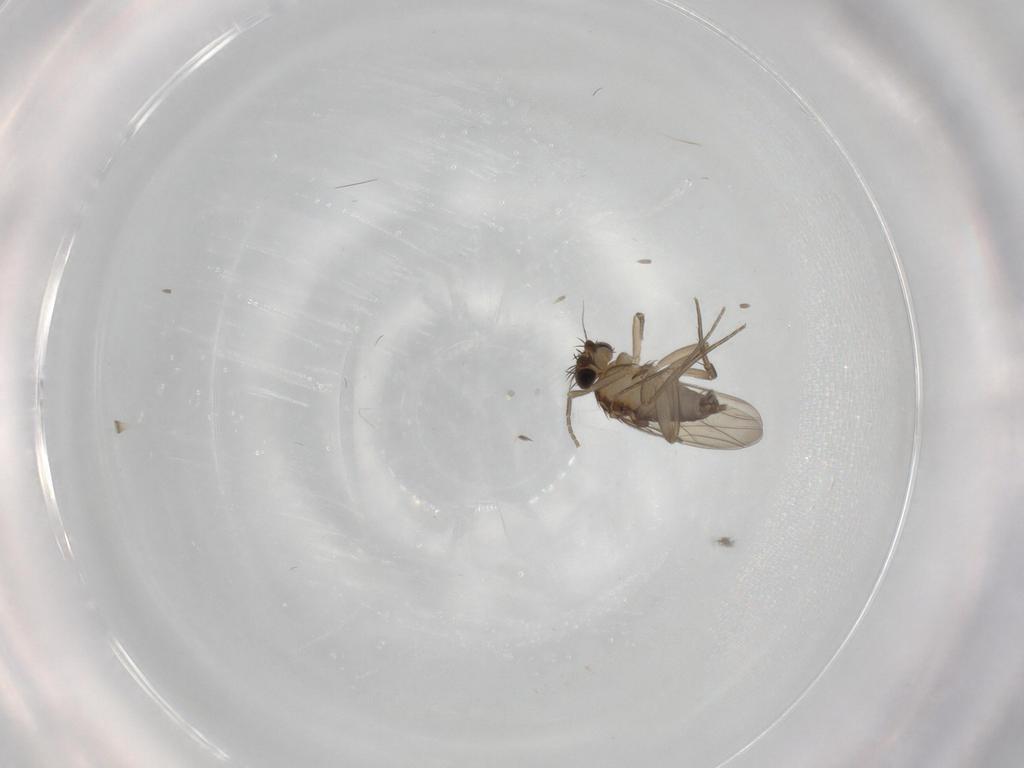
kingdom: Animalia
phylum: Arthropoda
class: Insecta
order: Diptera
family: Phoridae
